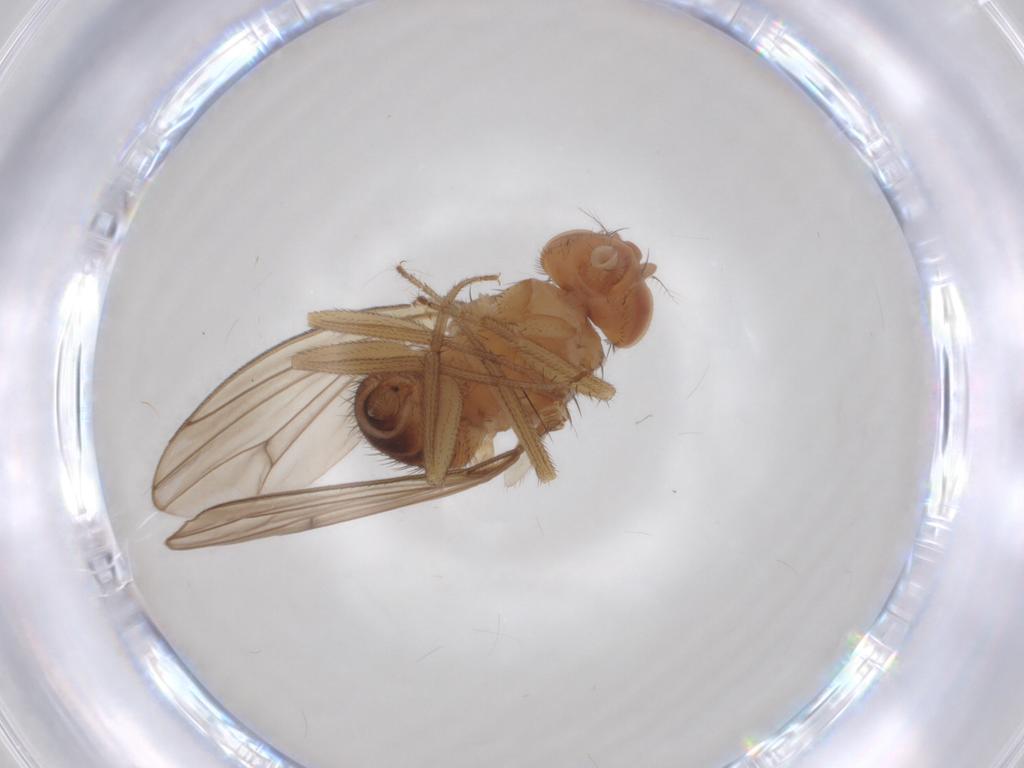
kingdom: Animalia
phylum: Arthropoda
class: Insecta
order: Diptera
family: Drosophilidae
